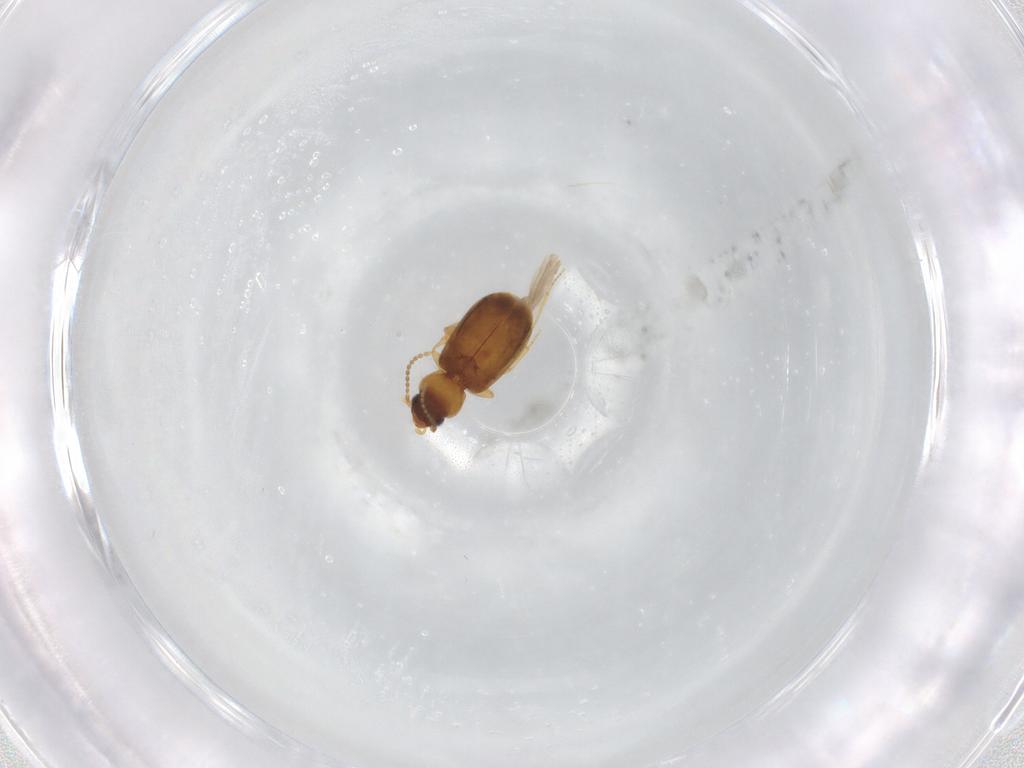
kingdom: Animalia
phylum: Arthropoda
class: Insecta
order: Coleoptera
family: Carabidae
